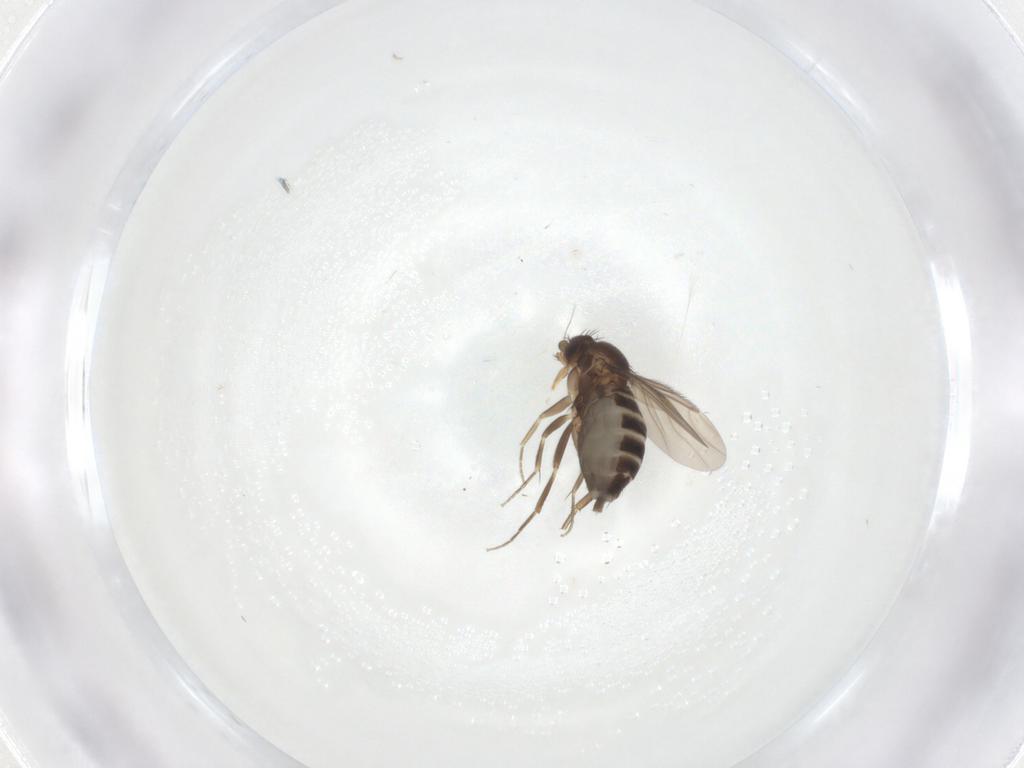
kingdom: Animalia
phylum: Arthropoda
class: Insecta
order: Diptera
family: Phoridae
